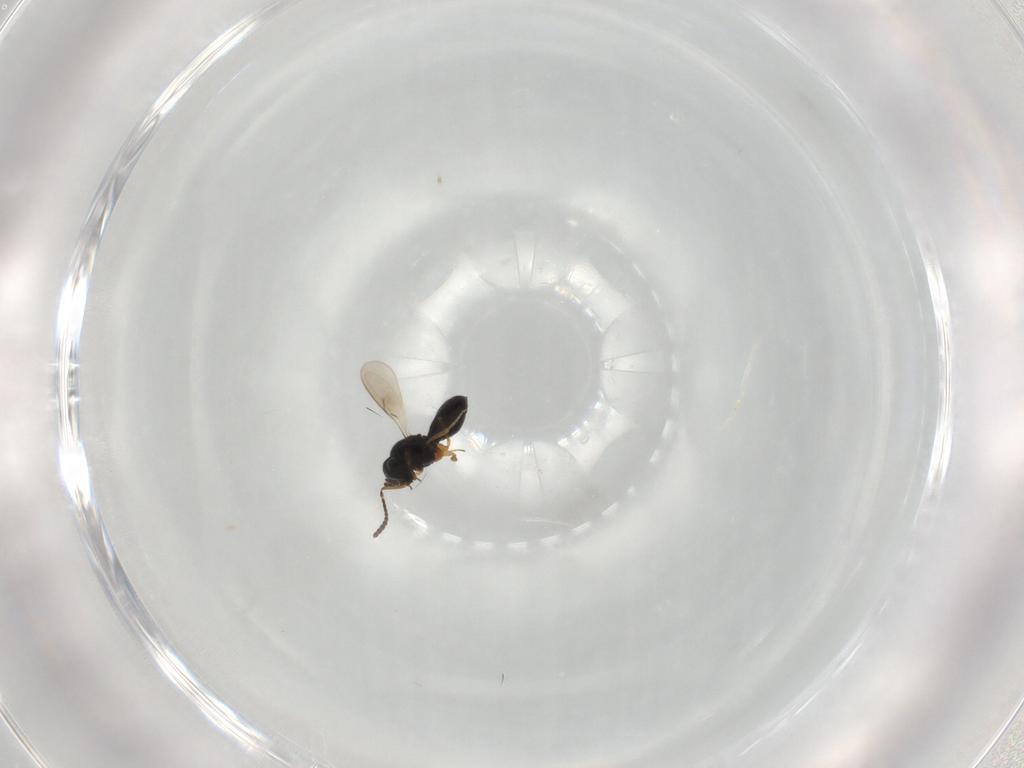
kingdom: Animalia
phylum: Arthropoda
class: Insecta
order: Hymenoptera
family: Scelionidae
